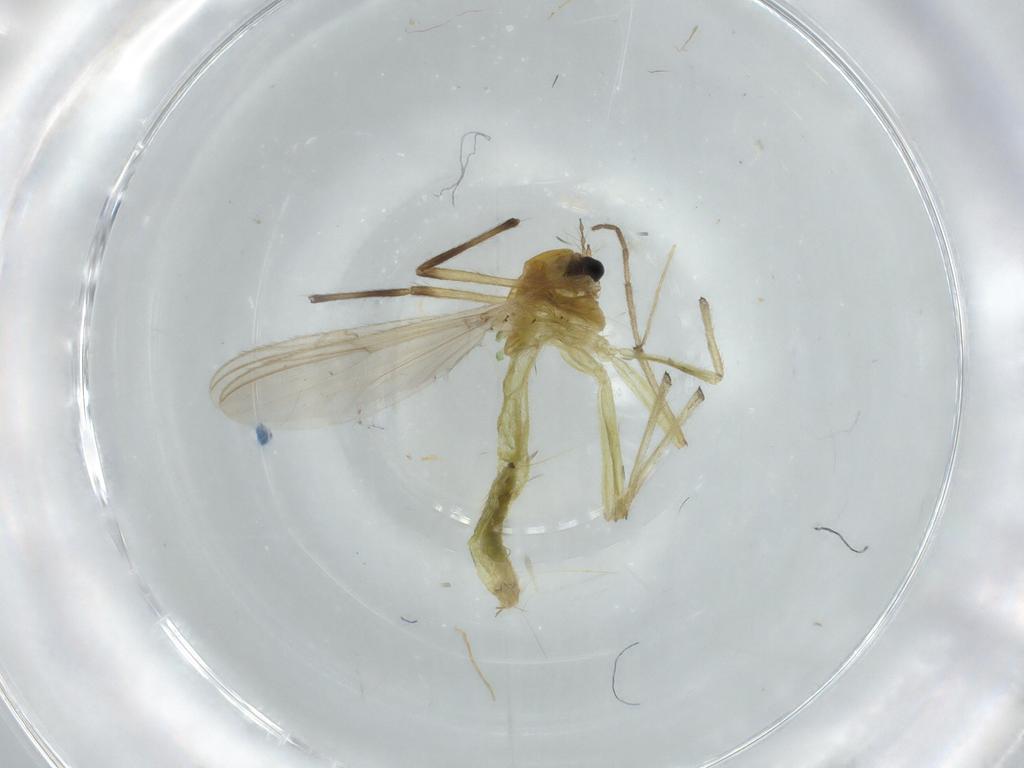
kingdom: Animalia
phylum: Arthropoda
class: Insecta
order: Diptera
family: Chironomidae
